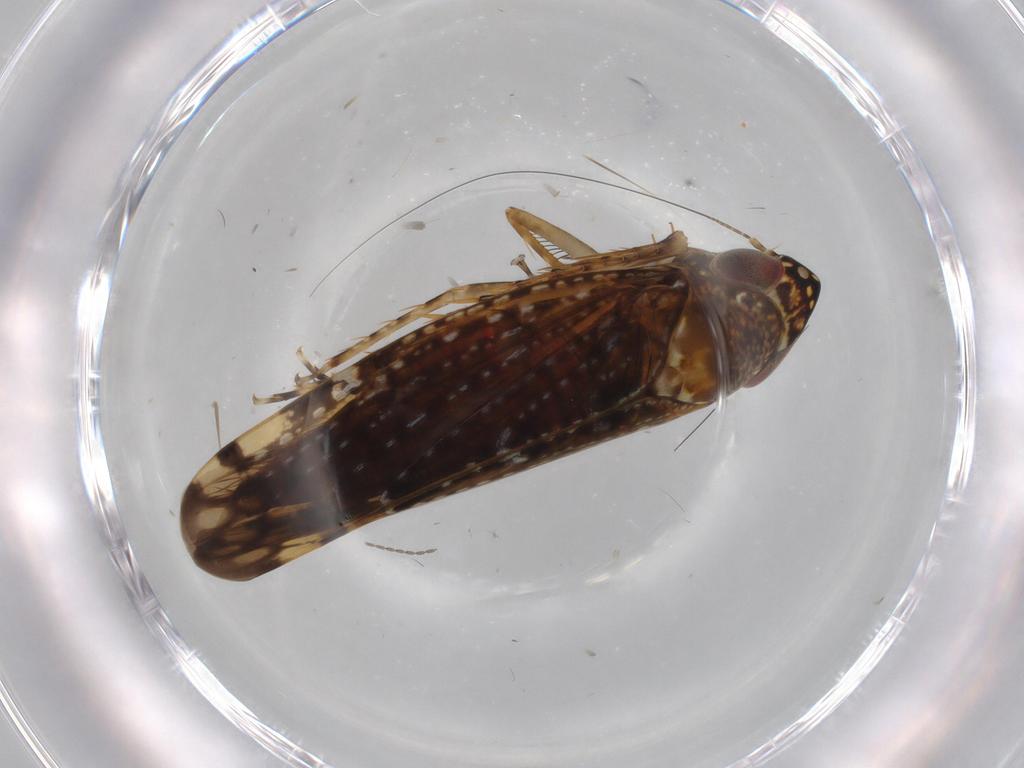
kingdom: Animalia
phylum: Arthropoda
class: Insecta
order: Hemiptera
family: Cicadellidae
